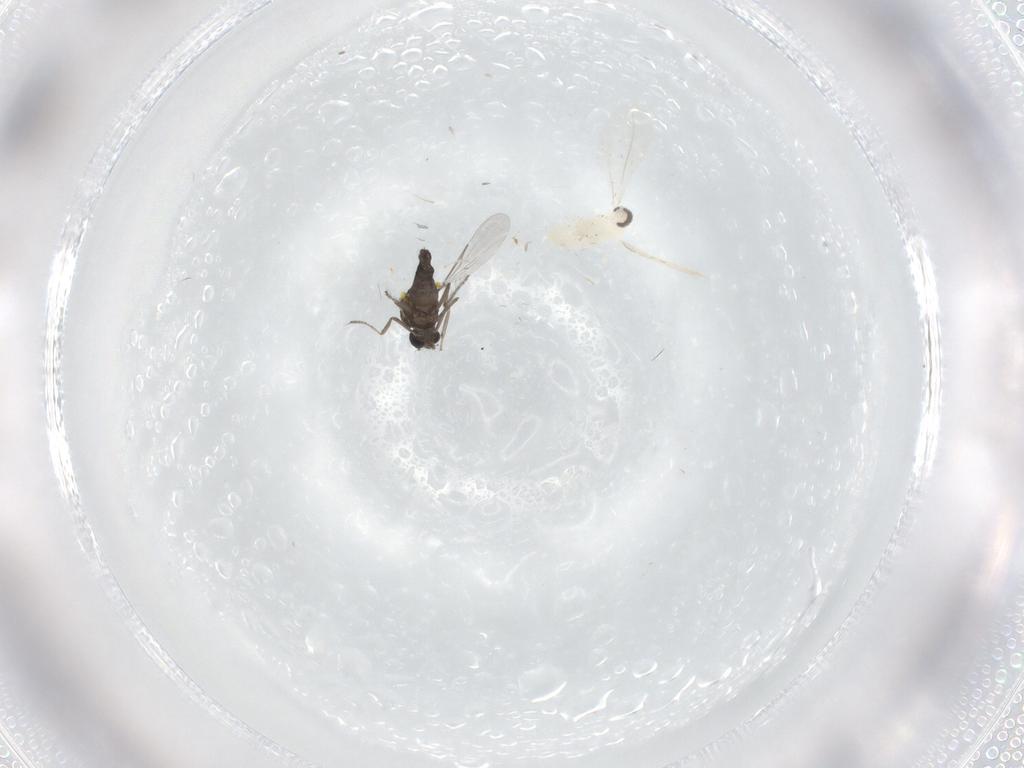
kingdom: Animalia
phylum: Arthropoda
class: Insecta
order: Diptera
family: Ceratopogonidae
